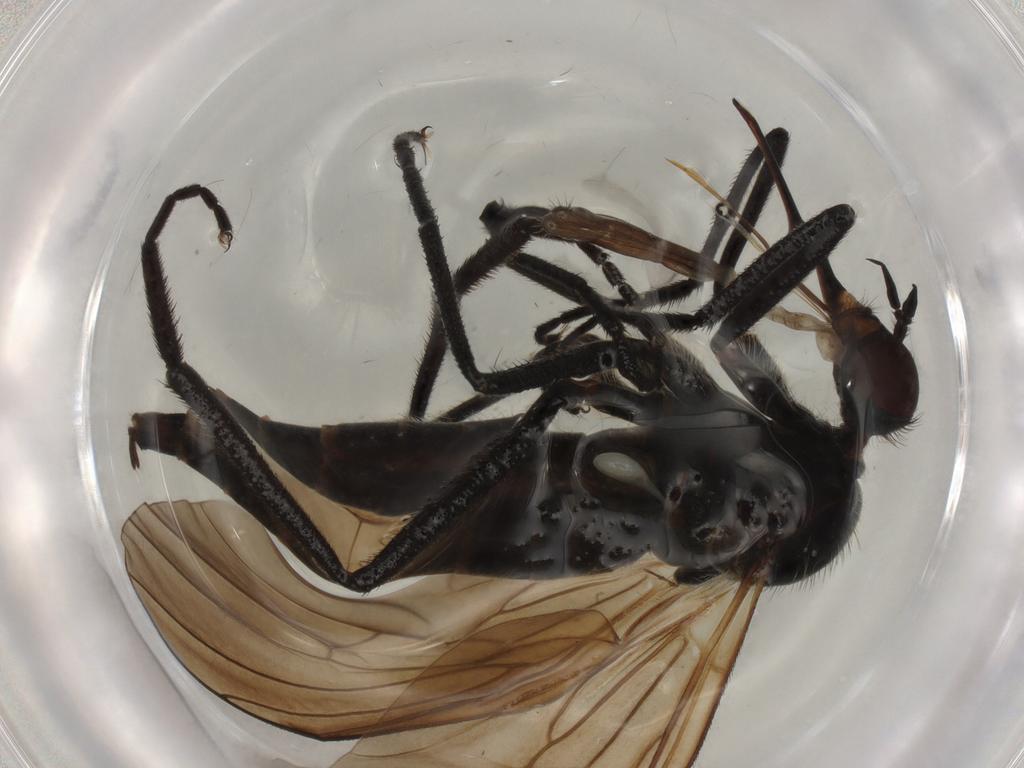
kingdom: Animalia
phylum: Arthropoda
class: Insecta
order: Diptera
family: Empididae
